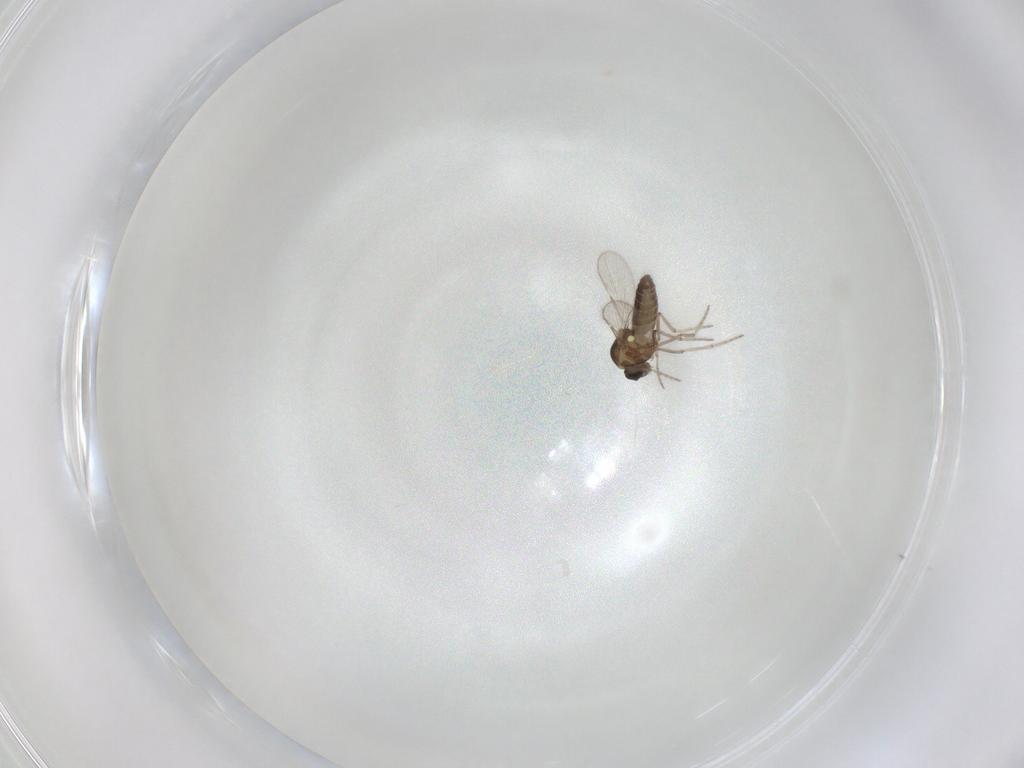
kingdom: Animalia
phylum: Arthropoda
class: Insecta
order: Diptera
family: Ceratopogonidae
